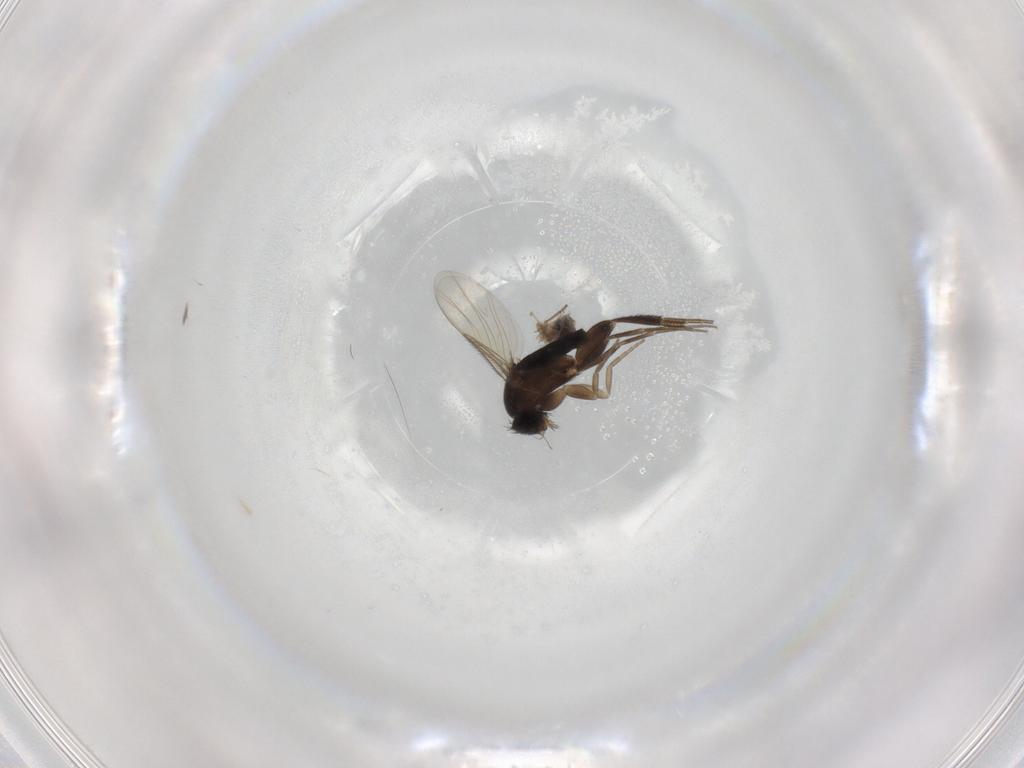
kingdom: Animalia
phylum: Arthropoda
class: Insecta
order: Diptera
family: Phoridae
